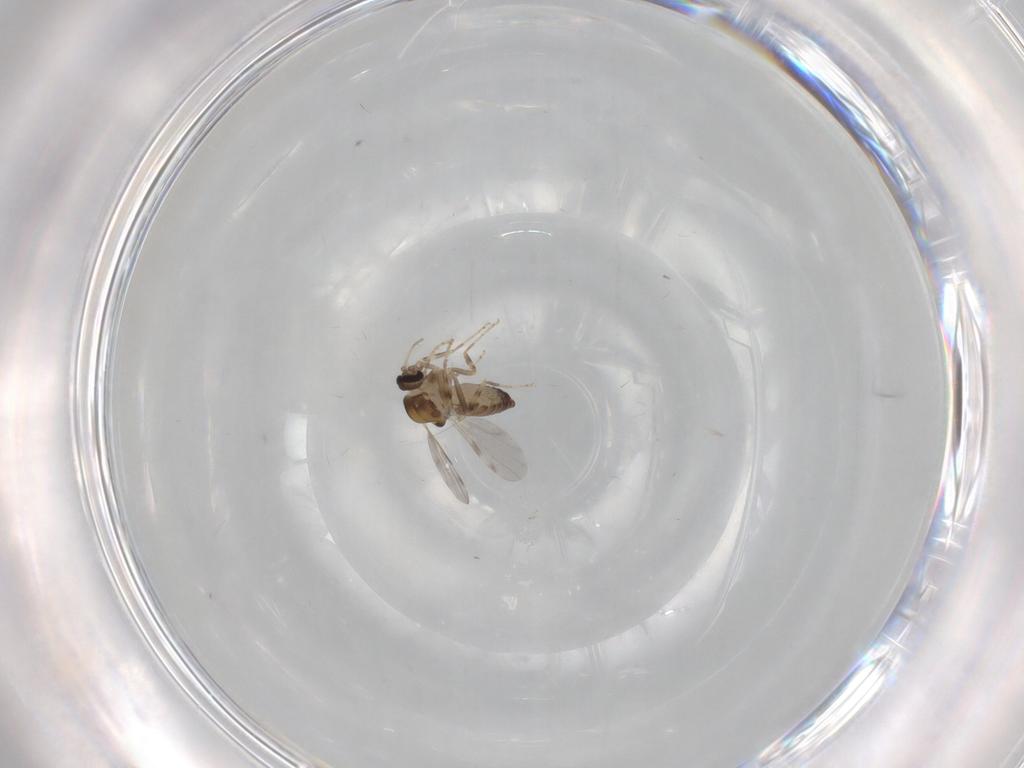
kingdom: Animalia
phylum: Arthropoda
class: Insecta
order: Diptera
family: Ceratopogonidae
